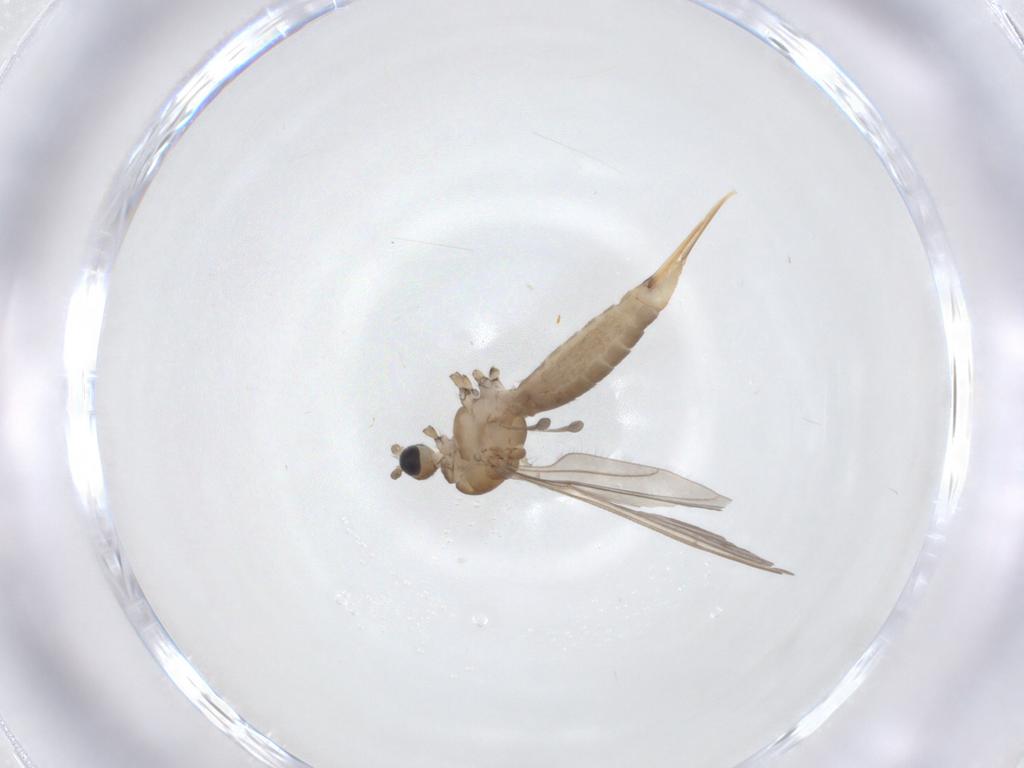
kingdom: Animalia
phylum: Arthropoda
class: Insecta
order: Diptera
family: Limoniidae
